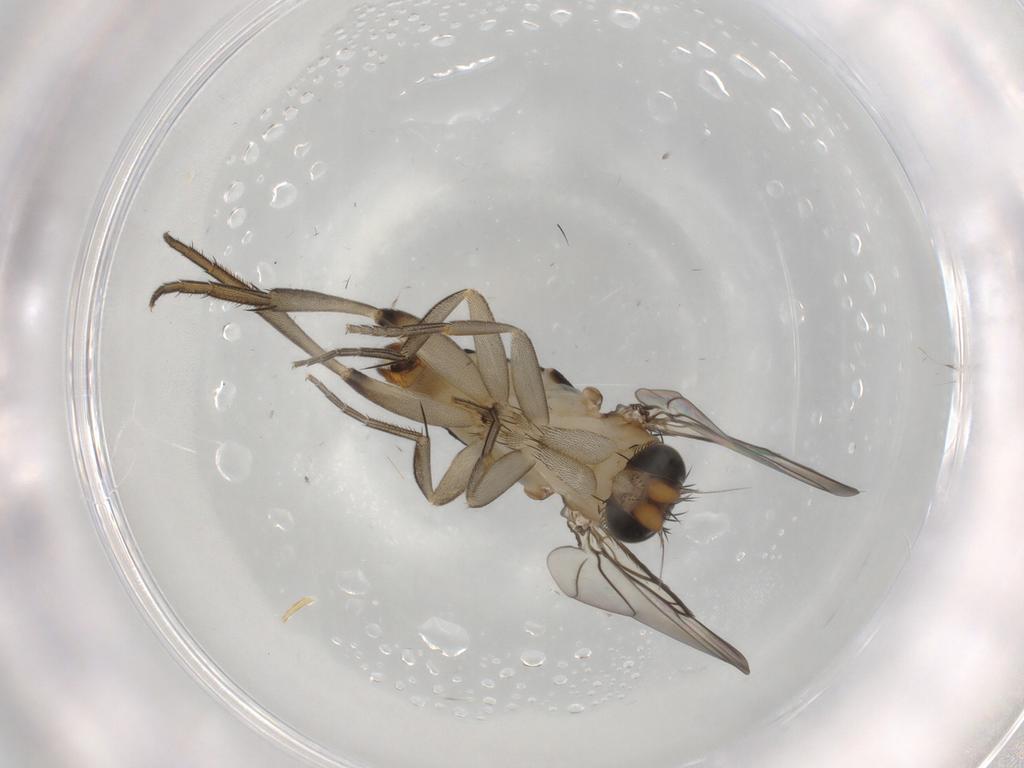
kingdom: Animalia
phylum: Arthropoda
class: Insecta
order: Diptera
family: Phoridae
